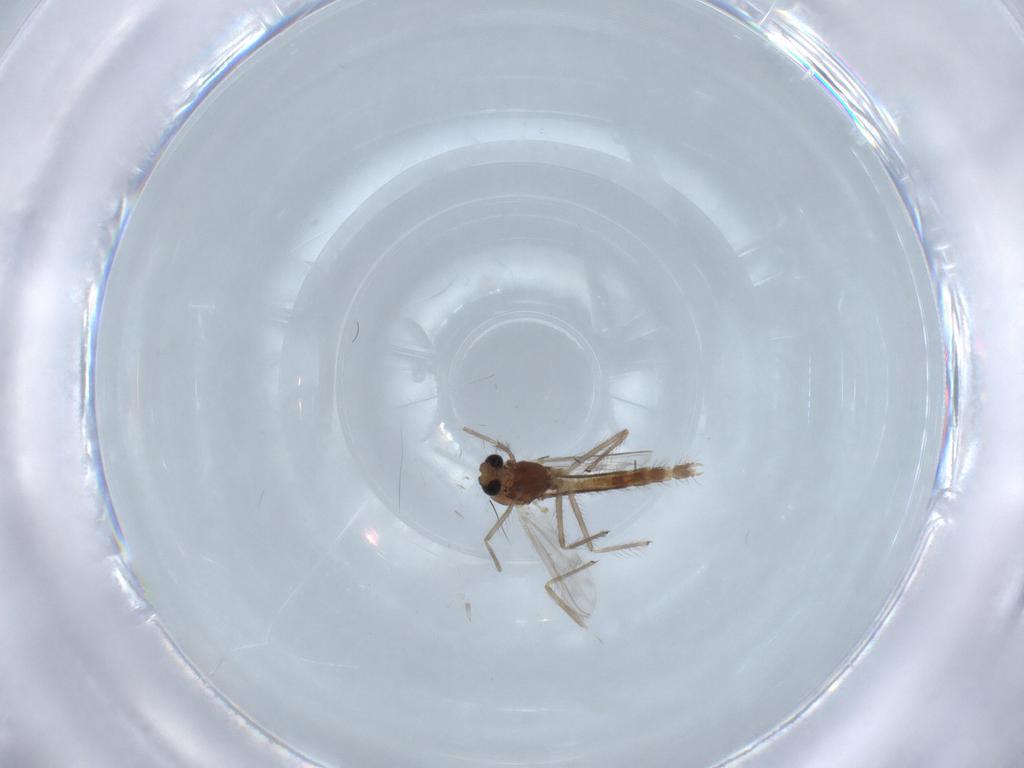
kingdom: Animalia
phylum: Arthropoda
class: Insecta
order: Diptera
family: Chironomidae
